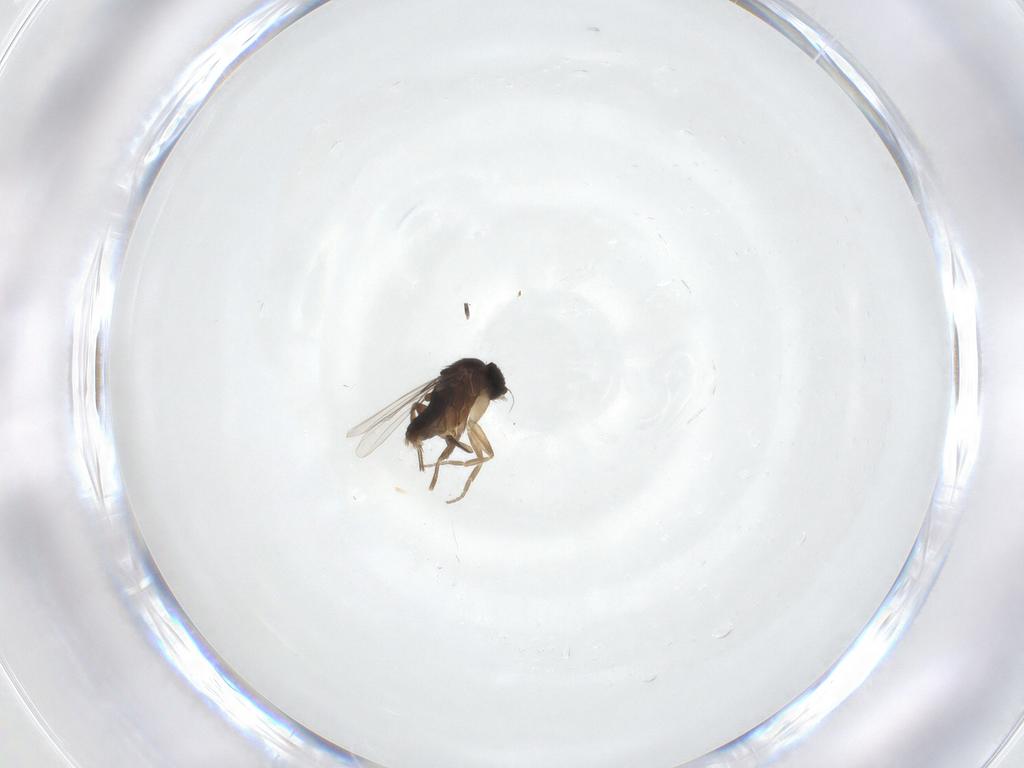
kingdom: Animalia
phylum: Arthropoda
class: Insecta
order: Diptera
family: Phoridae
